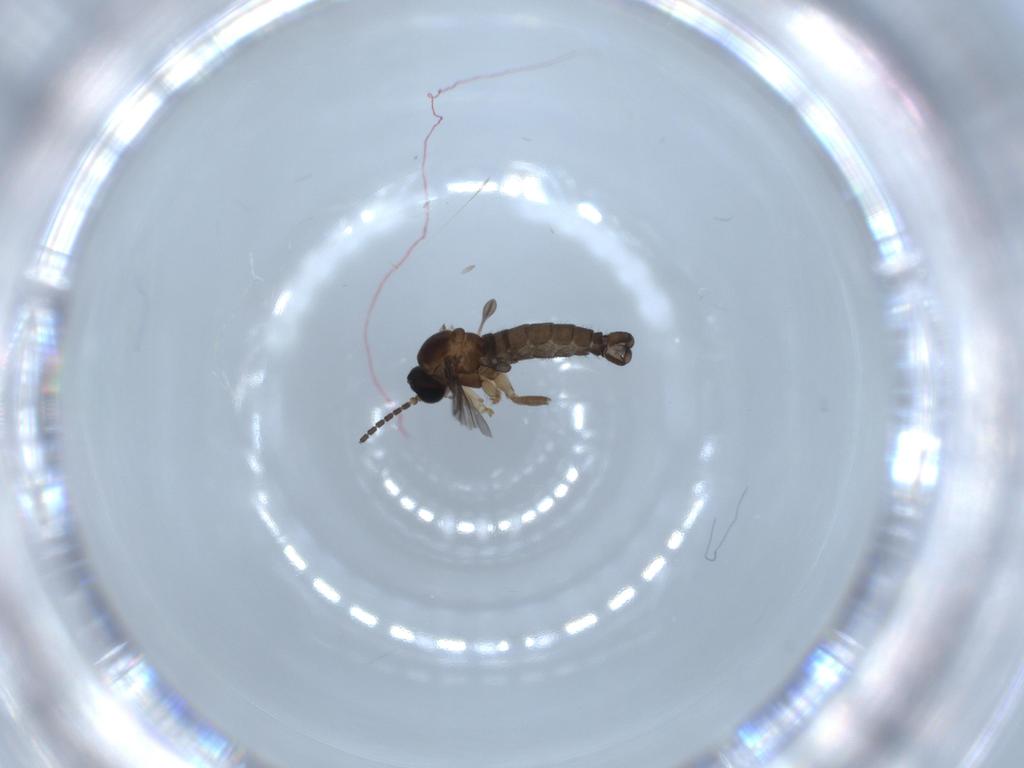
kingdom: Animalia
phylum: Arthropoda
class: Insecta
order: Diptera
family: Sciaridae
